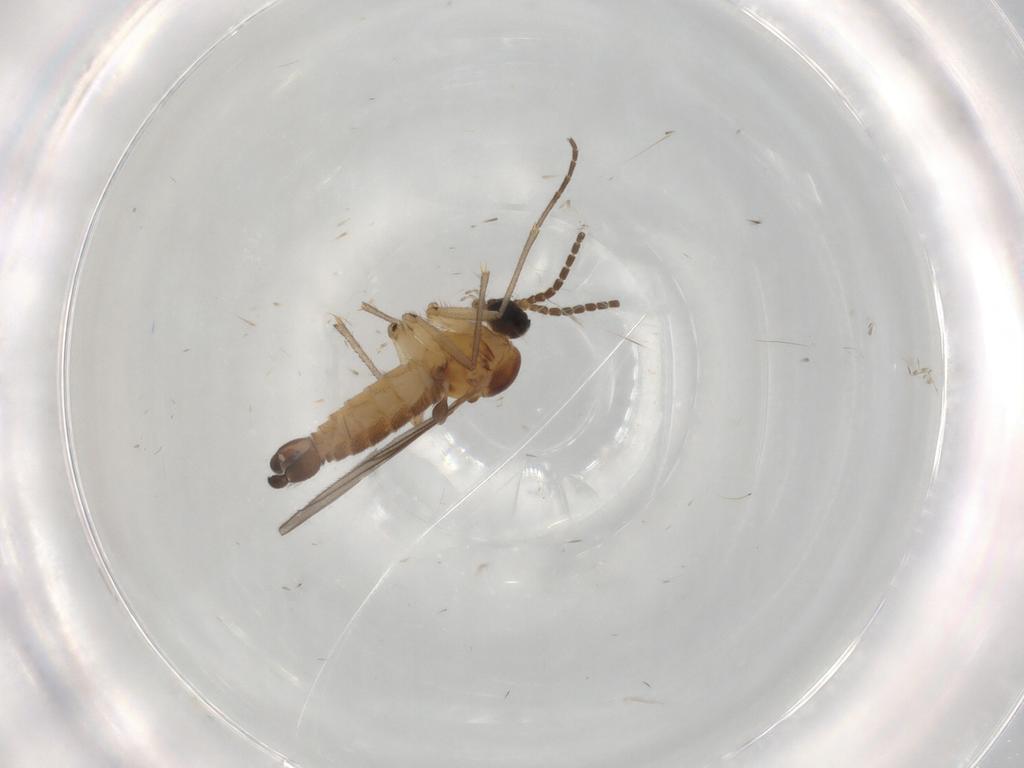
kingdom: Animalia
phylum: Arthropoda
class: Insecta
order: Diptera
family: Sciaridae
